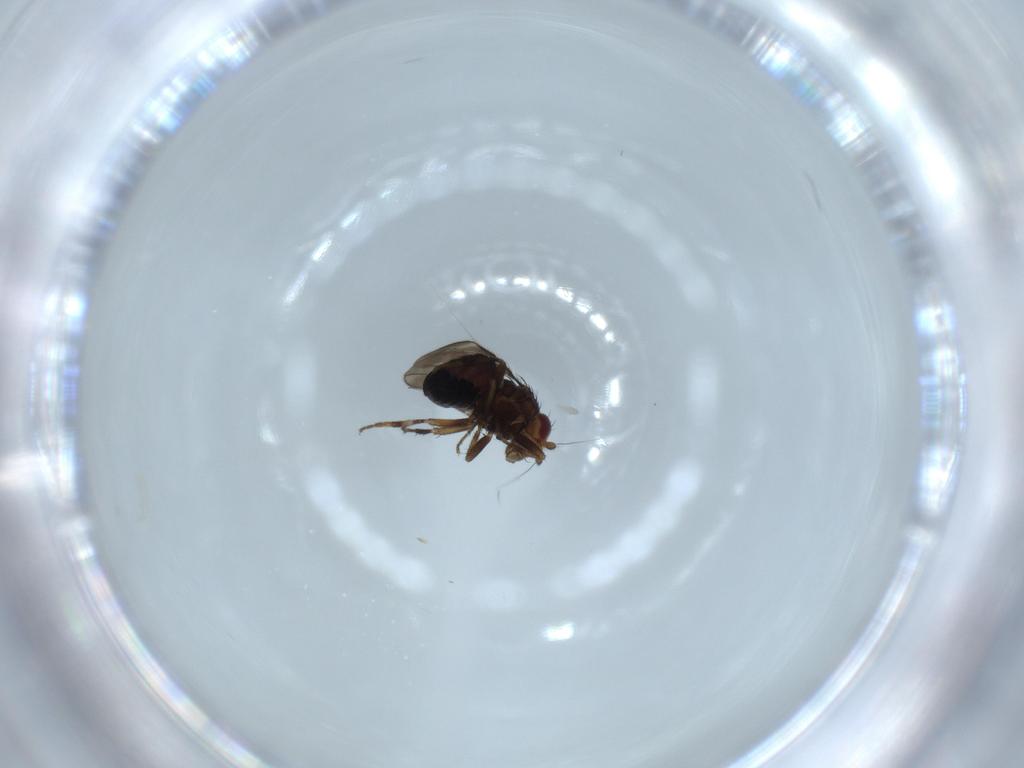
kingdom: Animalia
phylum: Arthropoda
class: Insecta
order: Diptera
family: Sphaeroceridae
